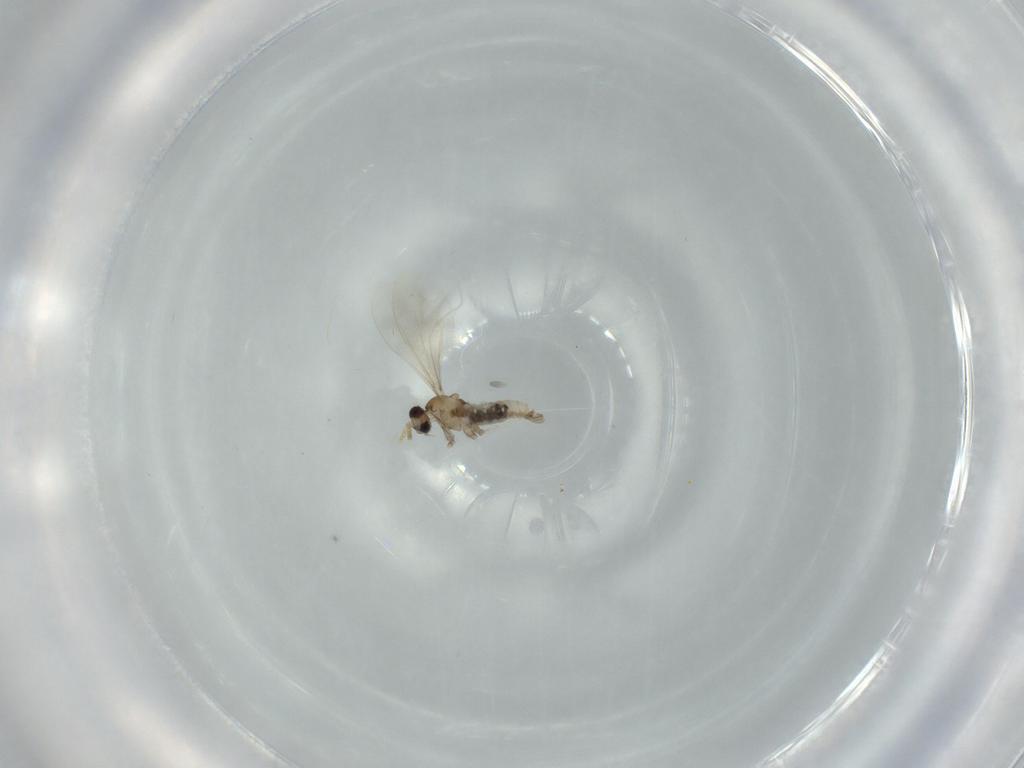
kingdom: Animalia
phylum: Arthropoda
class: Insecta
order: Diptera
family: Cecidomyiidae
